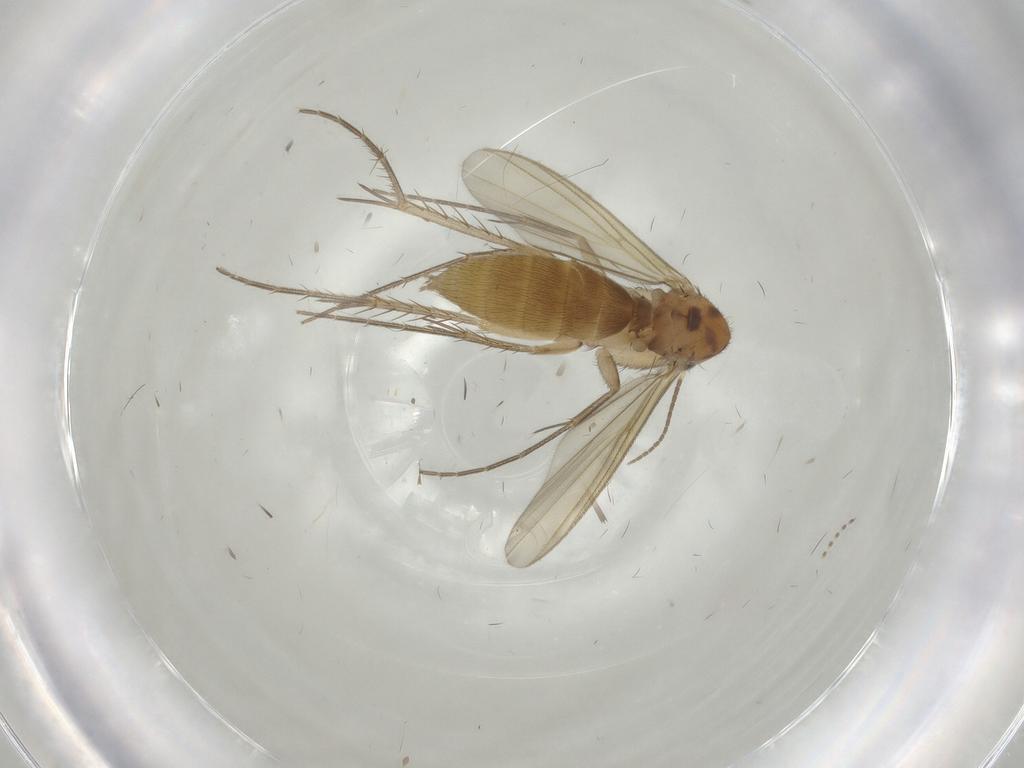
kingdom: Animalia
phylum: Arthropoda
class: Insecta
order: Diptera
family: Mycetophilidae
